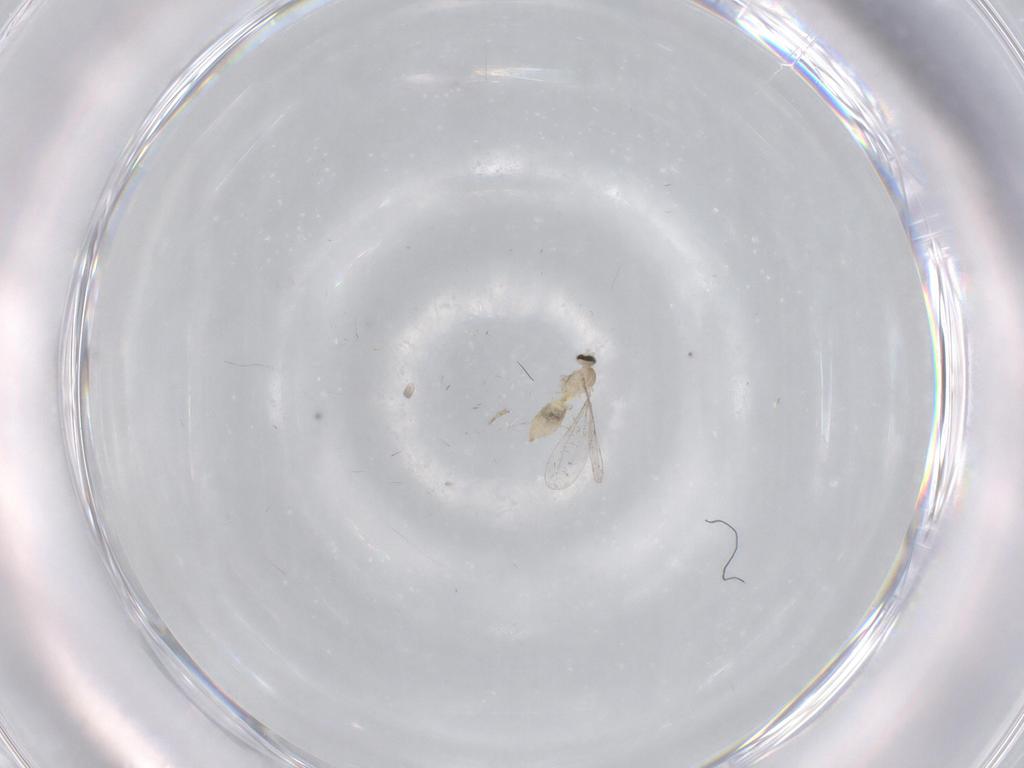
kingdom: Animalia
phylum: Arthropoda
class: Insecta
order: Diptera
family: Cecidomyiidae
